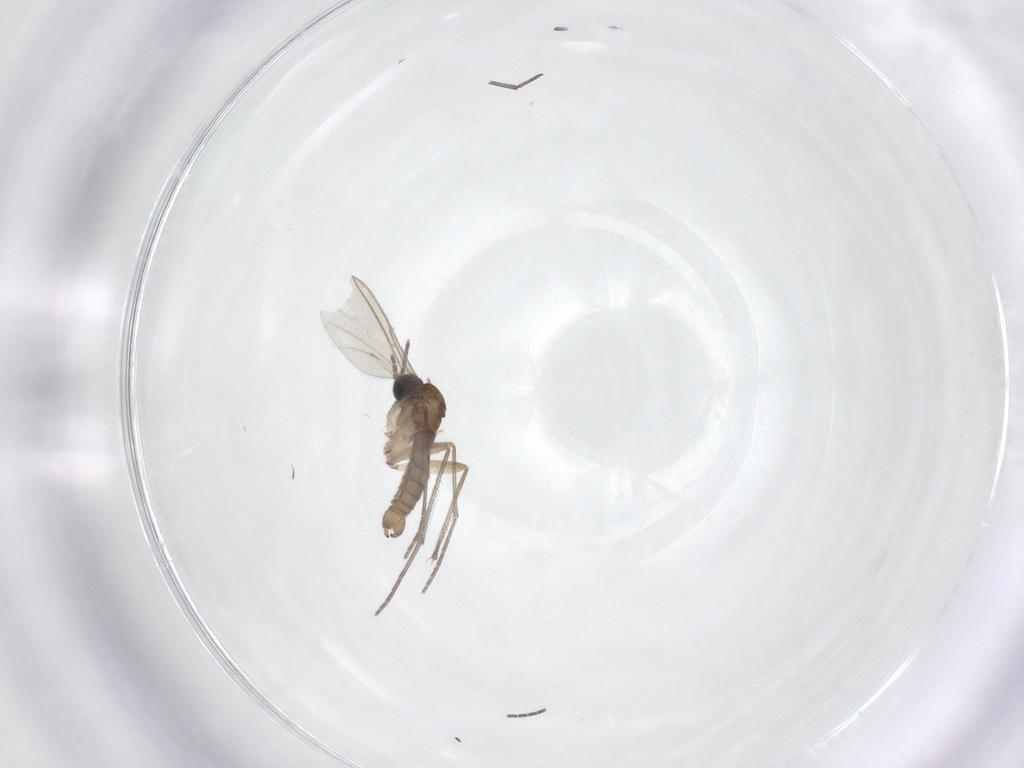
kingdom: Animalia
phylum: Arthropoda
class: Insecta
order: Diptera
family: Sciaridae
